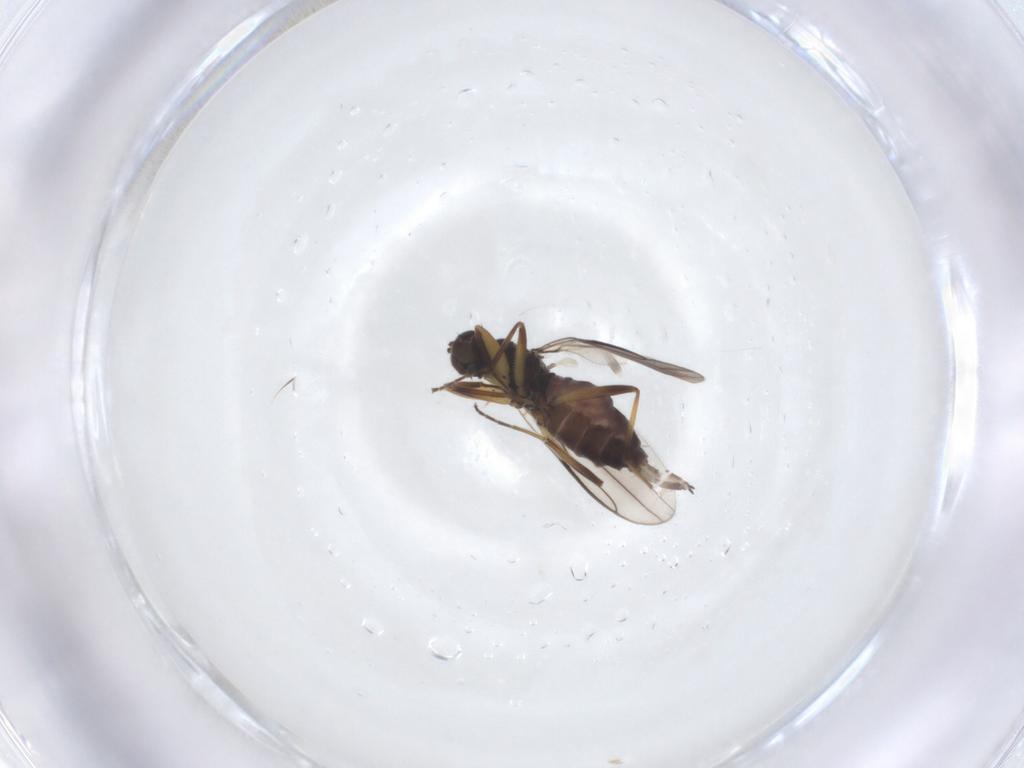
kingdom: Animalia
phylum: Arthropoda
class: Insecta
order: Diptera
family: Hybotidae
